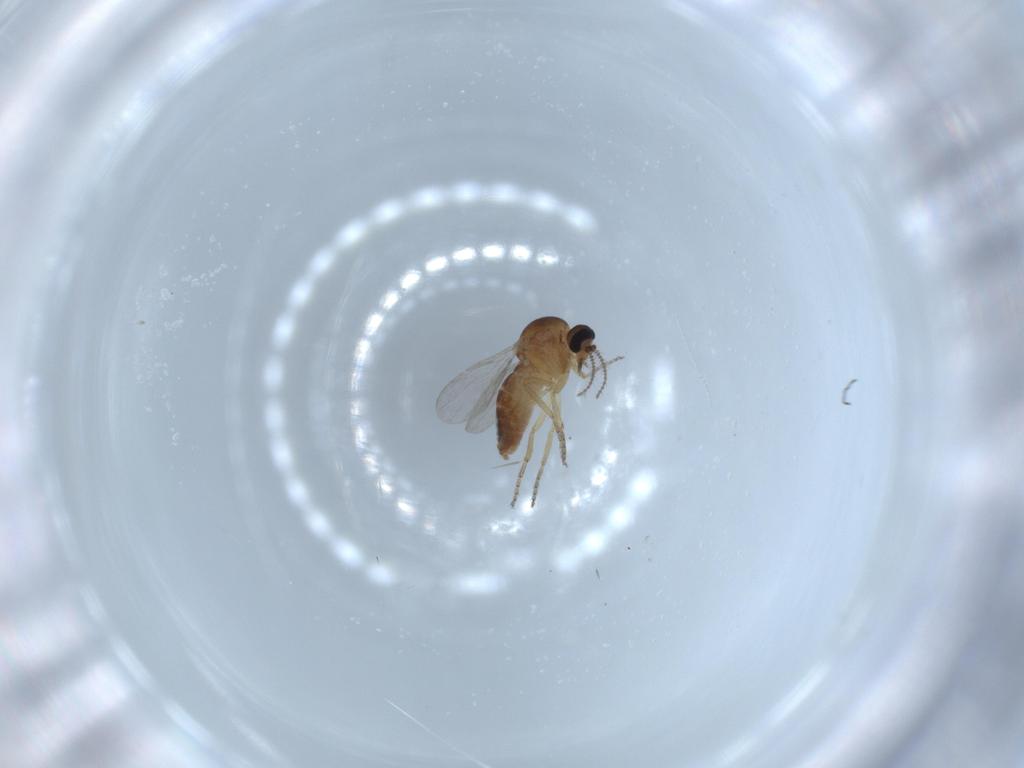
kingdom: Animalia
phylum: Arthropoda
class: Insecta
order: Diptera
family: Ceratopogonidae
